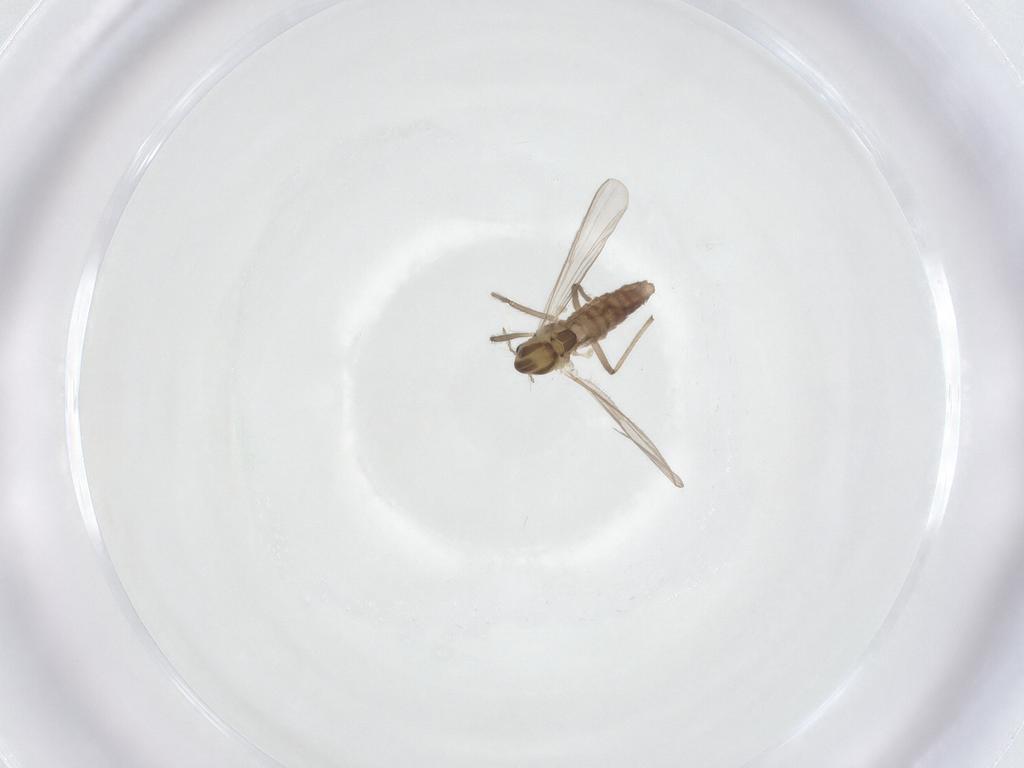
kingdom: Animalia
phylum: Arthropoda
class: Insecta
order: Diptera
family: Chironomidae
